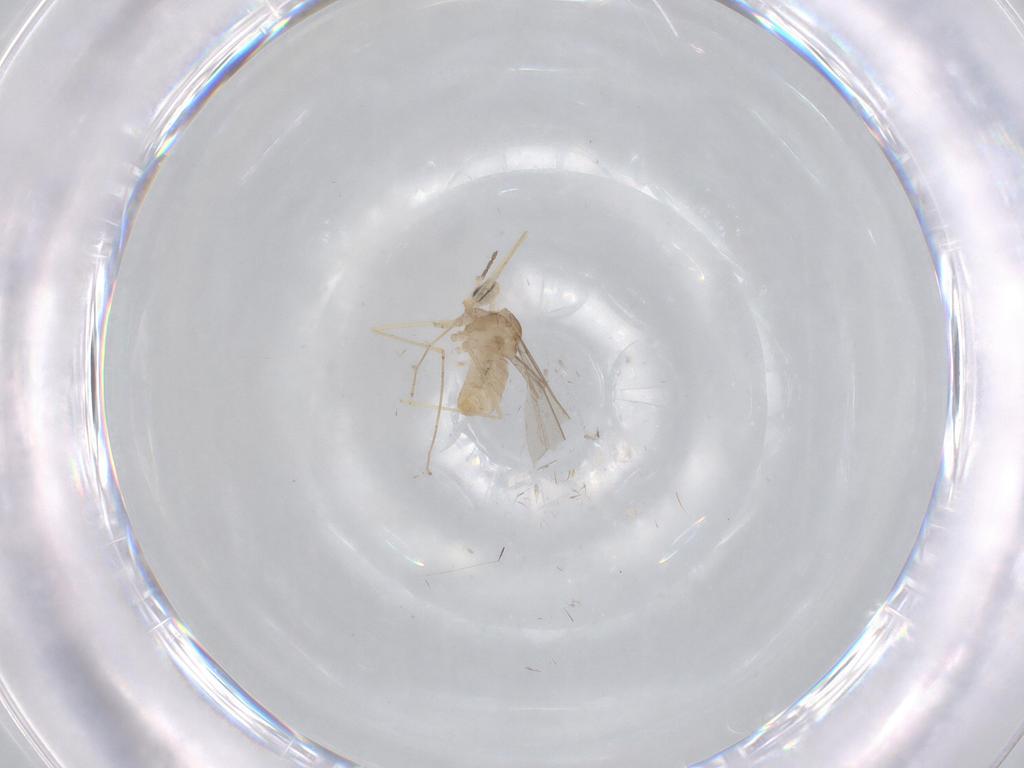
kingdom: Animalia
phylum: Arthropoda
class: Insecta
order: Diptera
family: Cecidomyiidae
